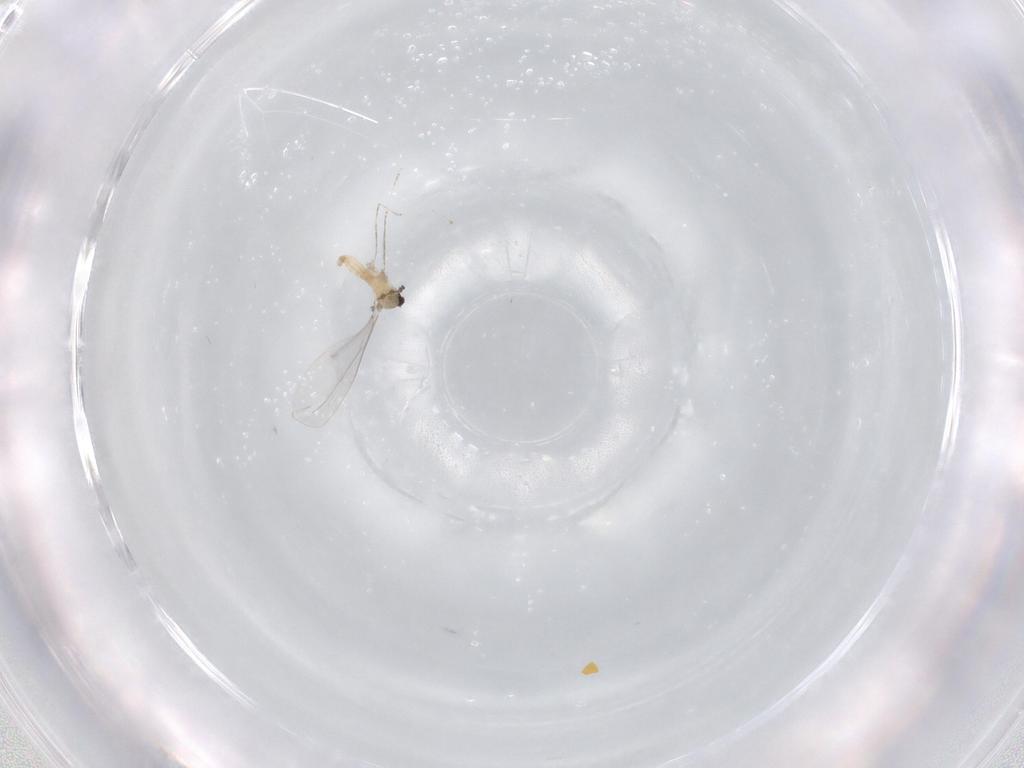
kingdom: Animalia
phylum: Arthropoda
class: Insecta
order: Diptera
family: Cecidomyiidae
